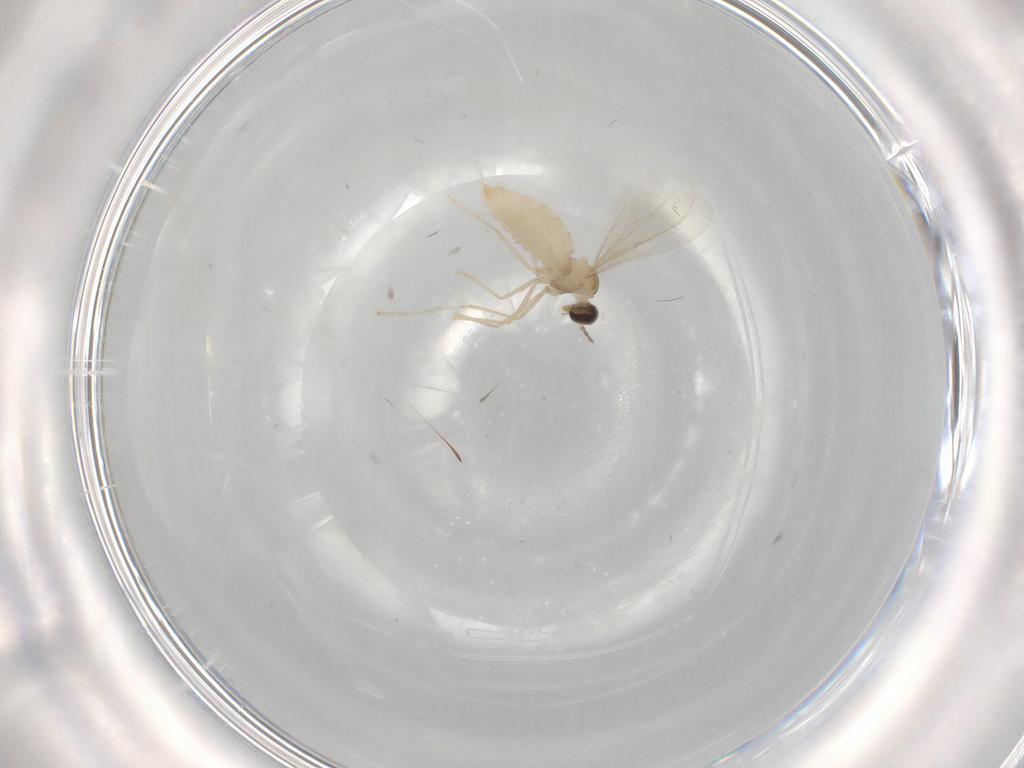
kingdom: Animalia
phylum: Arthropoda
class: Insecta
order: Diptera
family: Cecidomyiidae
